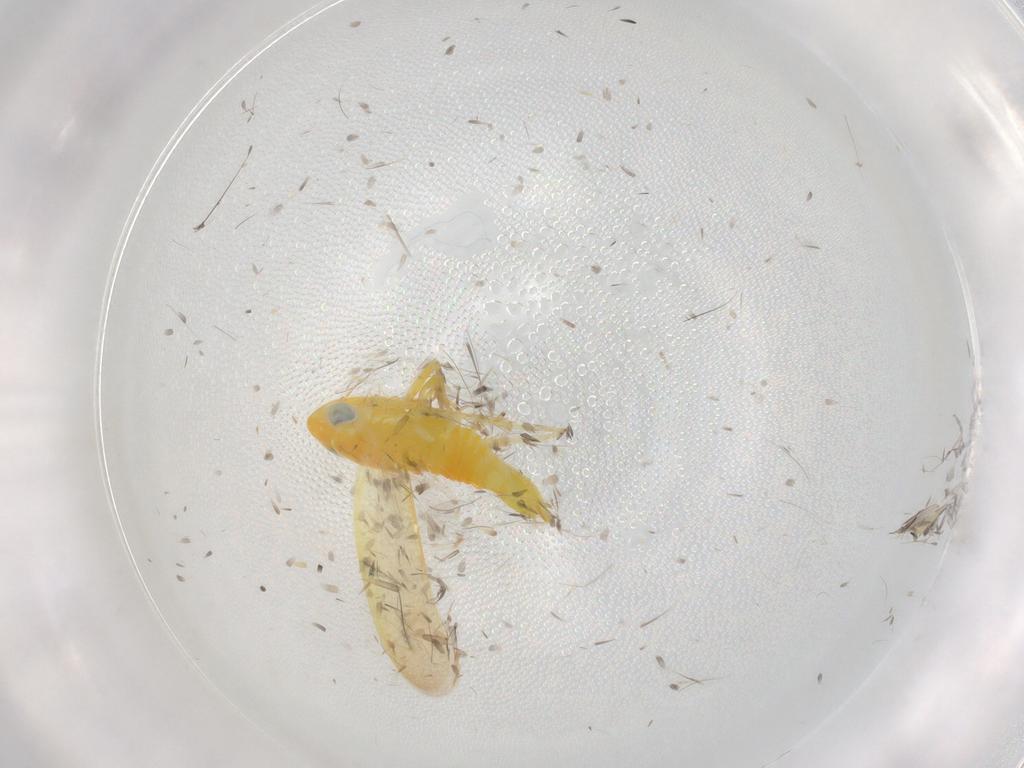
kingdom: Animalia
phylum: Arthropoda
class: Insecta
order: Hemiptera
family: Cicadellidae
